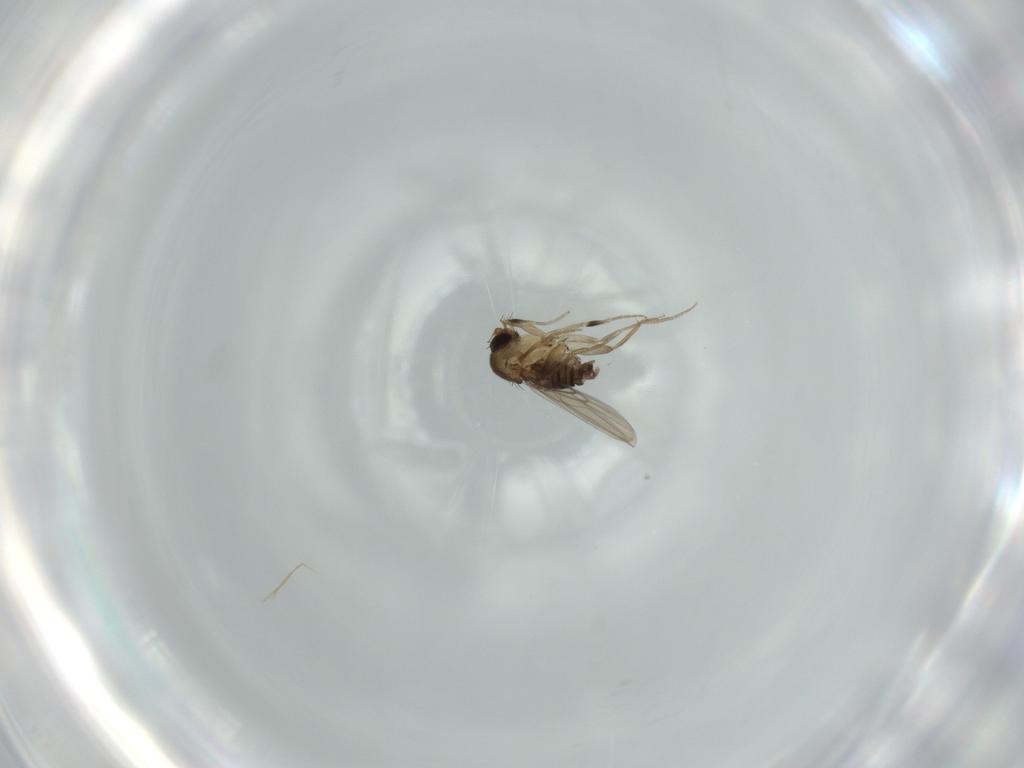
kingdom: Animalia
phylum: Arthropoda
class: Insecta
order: Diptera
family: Phoridae
